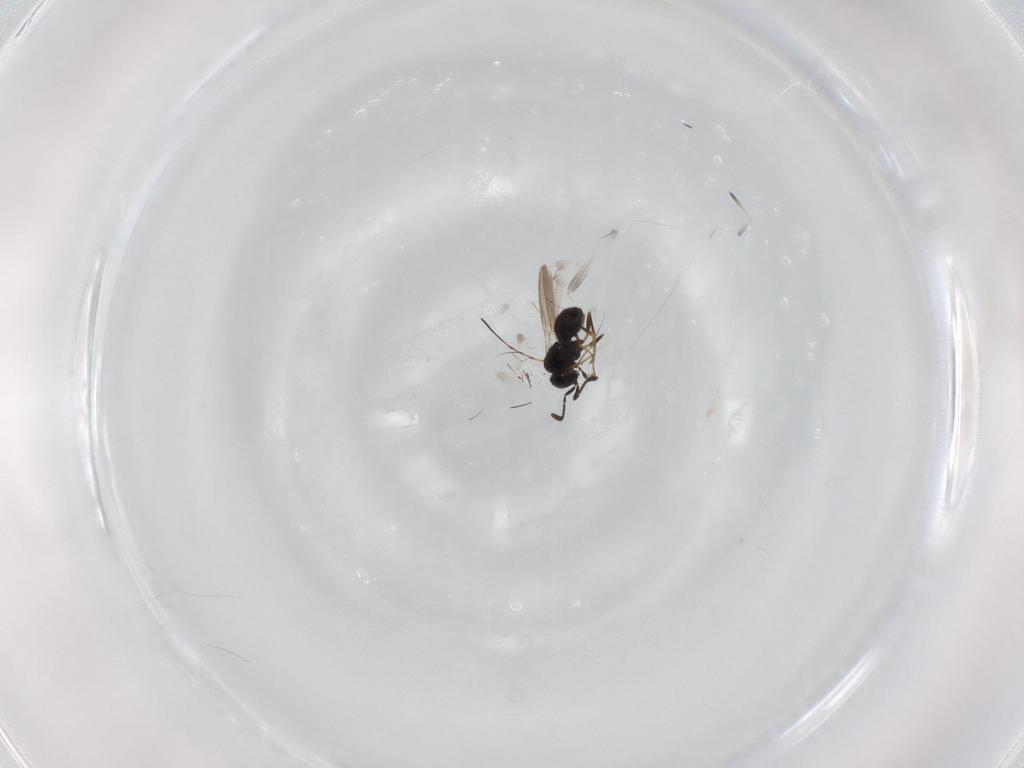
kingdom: Animalia
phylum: Arthropoda
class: Insecta
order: Hymenoptera
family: Scelionidae
